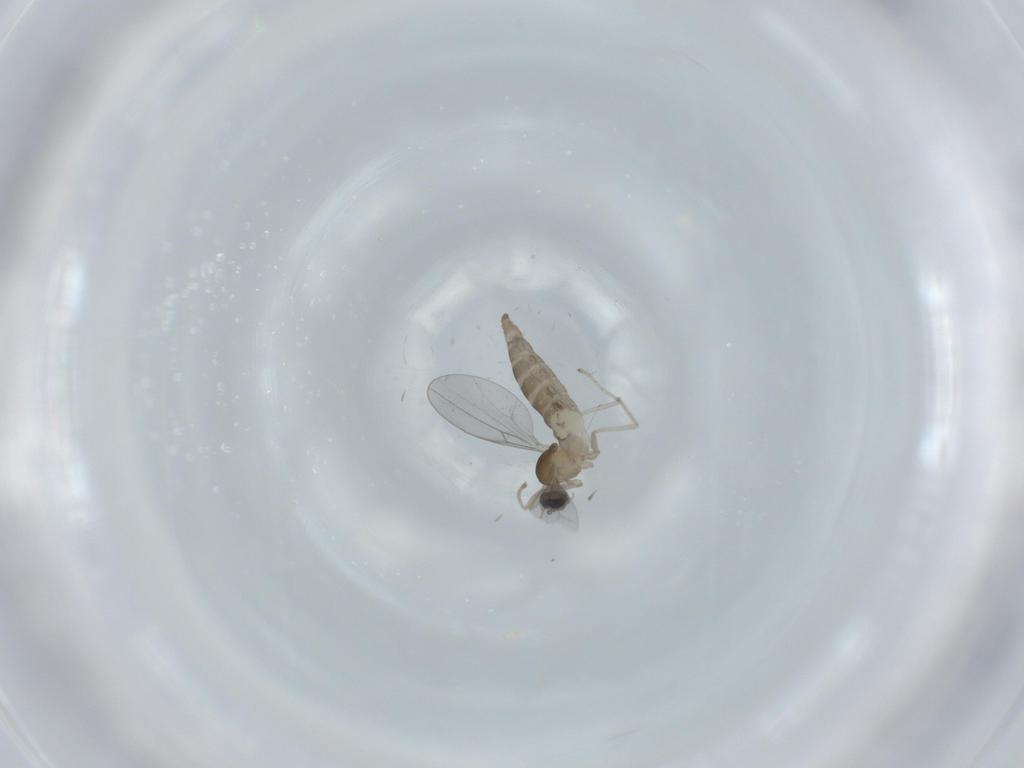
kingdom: Animalia
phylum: Arthropoda
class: Insecta
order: Diptera
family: Cecidomyiidae
